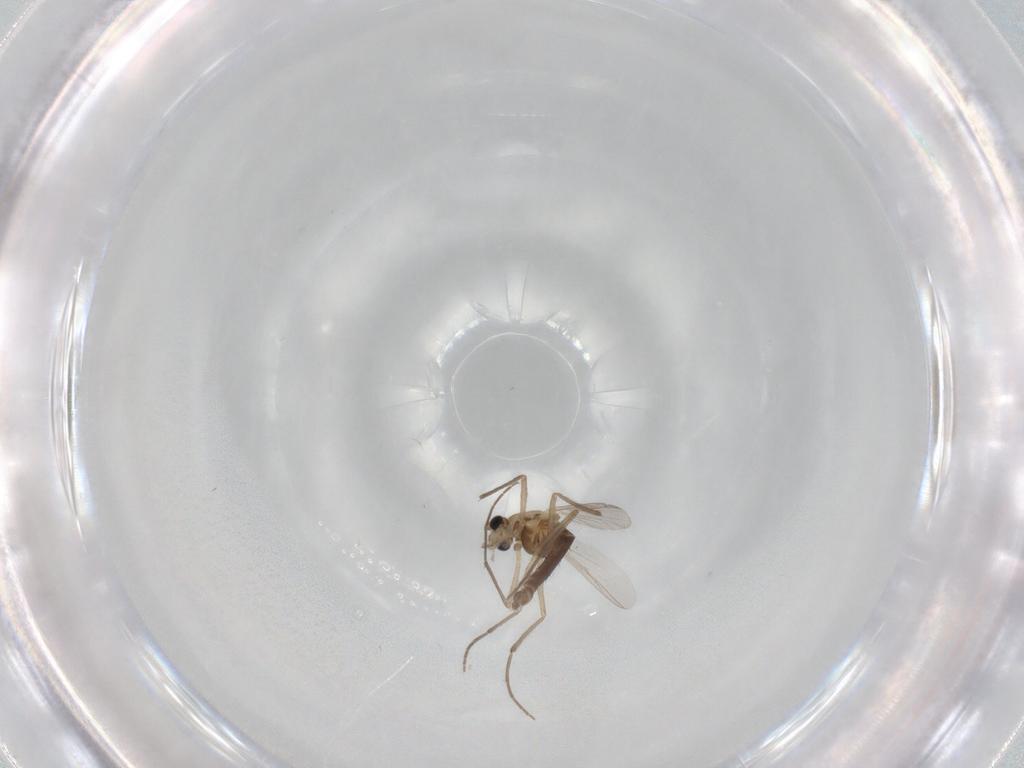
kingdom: Animalia
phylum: Arthropoda
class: Insecta
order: Diptera
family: Chironomidae
